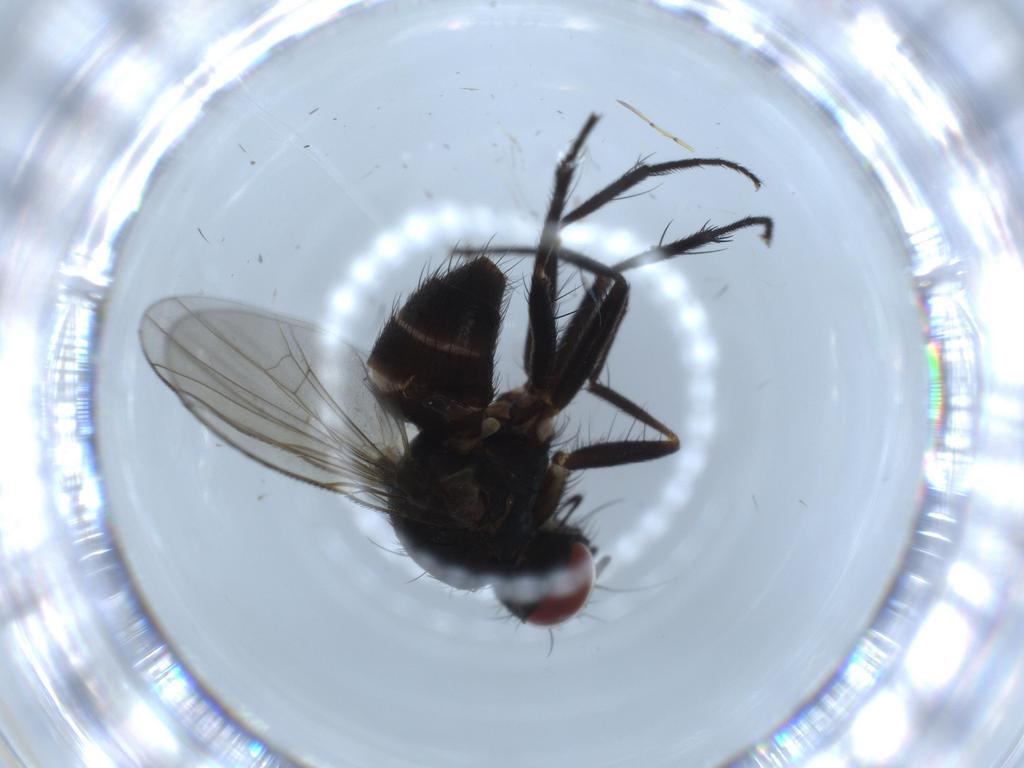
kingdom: Animalia
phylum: Arthropoda
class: Insecta
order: Diptera
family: Muscidae
